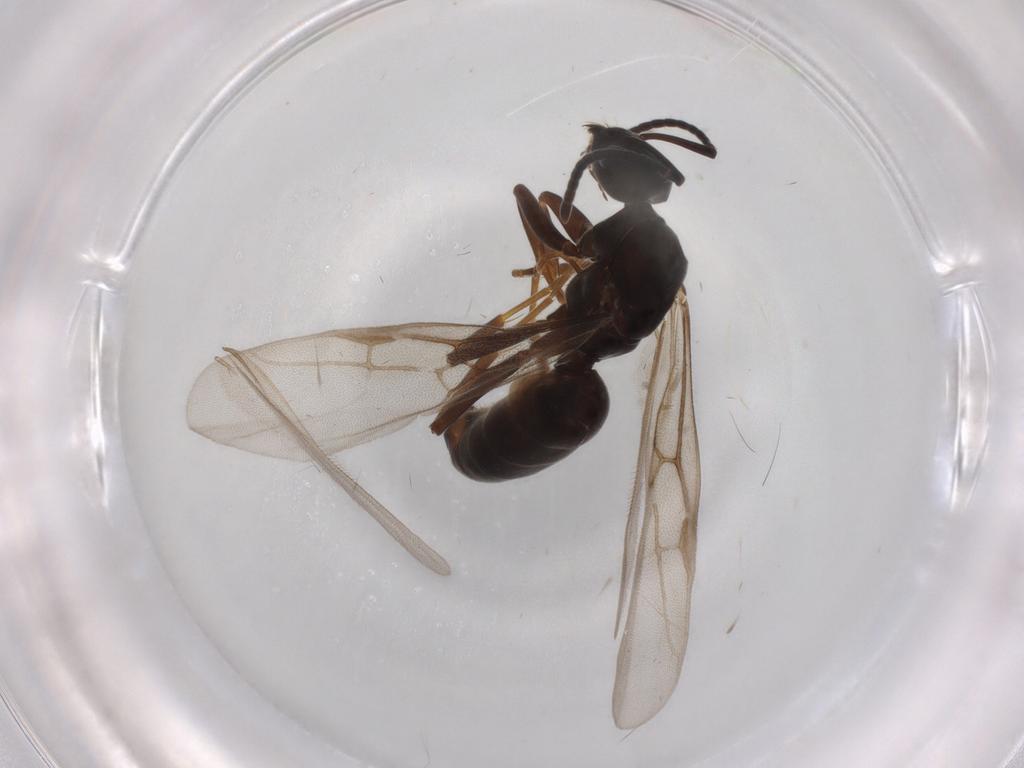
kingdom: Animalia
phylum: Arthropoda
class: Insecta
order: Hymenoptera
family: Formicidae
